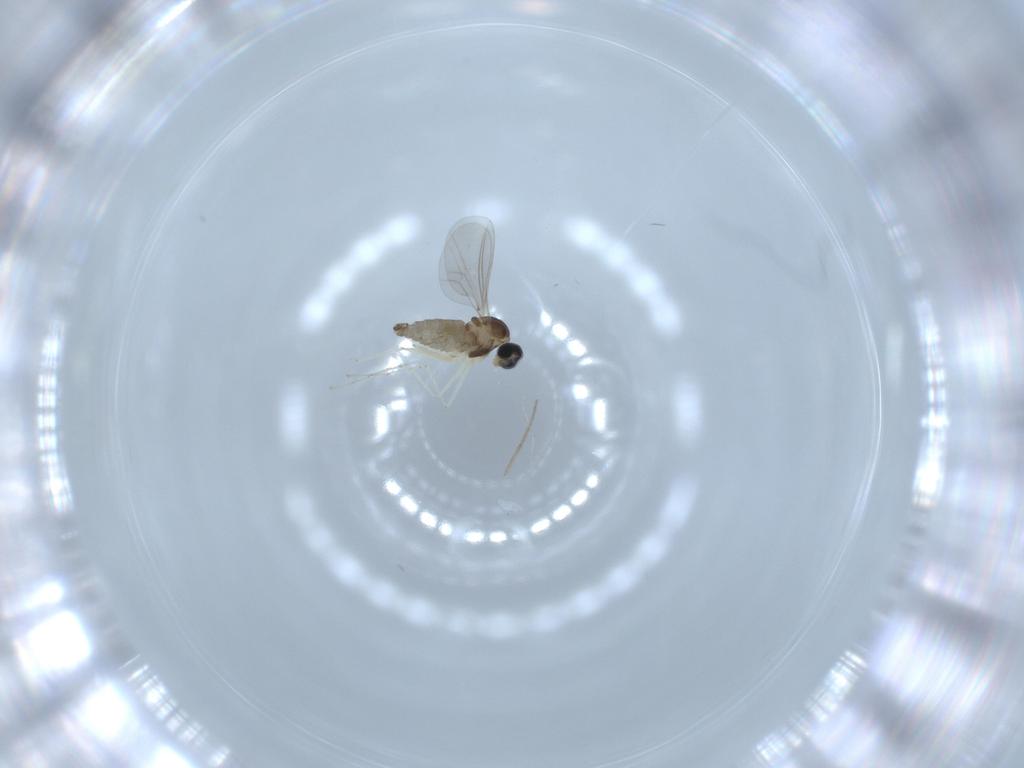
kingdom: Animalia
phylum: Arthropoda
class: Insecta
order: Diptera
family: Cecidomyiidae
